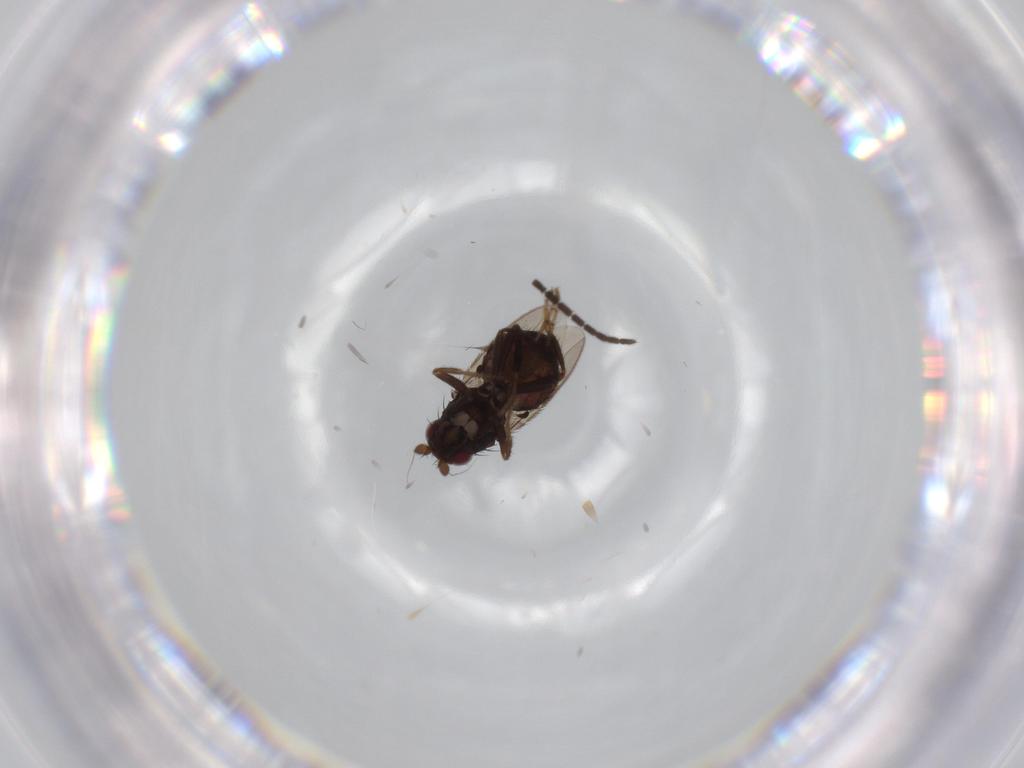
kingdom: Animalia
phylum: Arthropoda
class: Insecta
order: Diptera
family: Sciaridae
